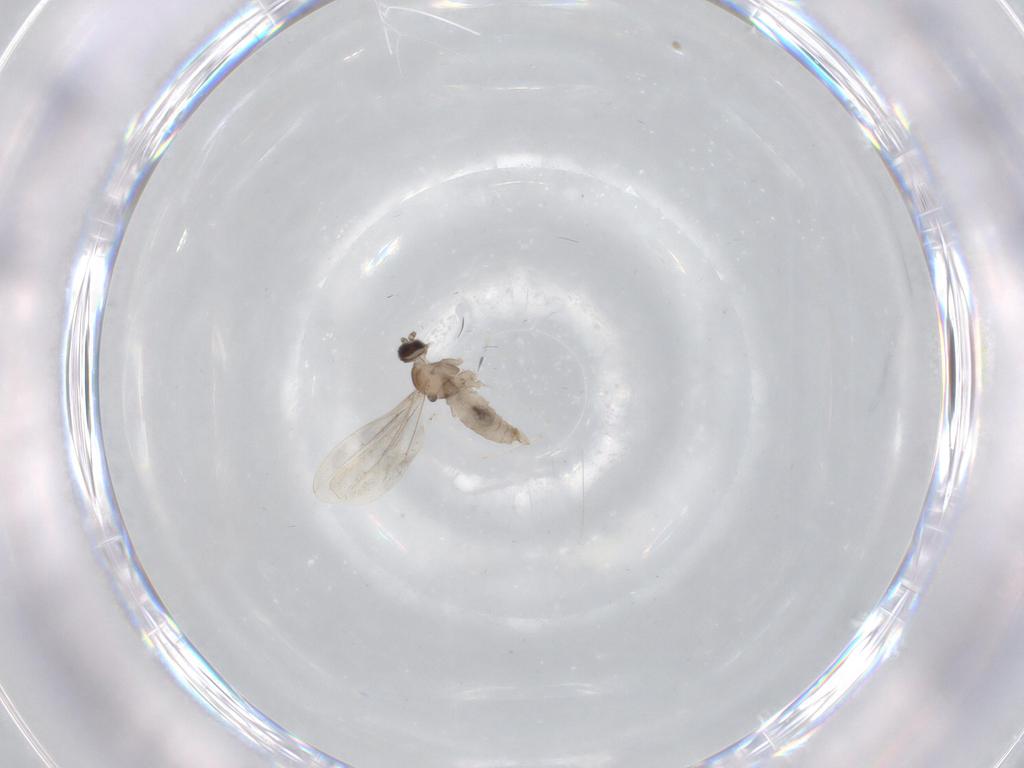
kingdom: Animalia
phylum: Arthropoda
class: Insecta
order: Diptera
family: Cecidomyiidae
